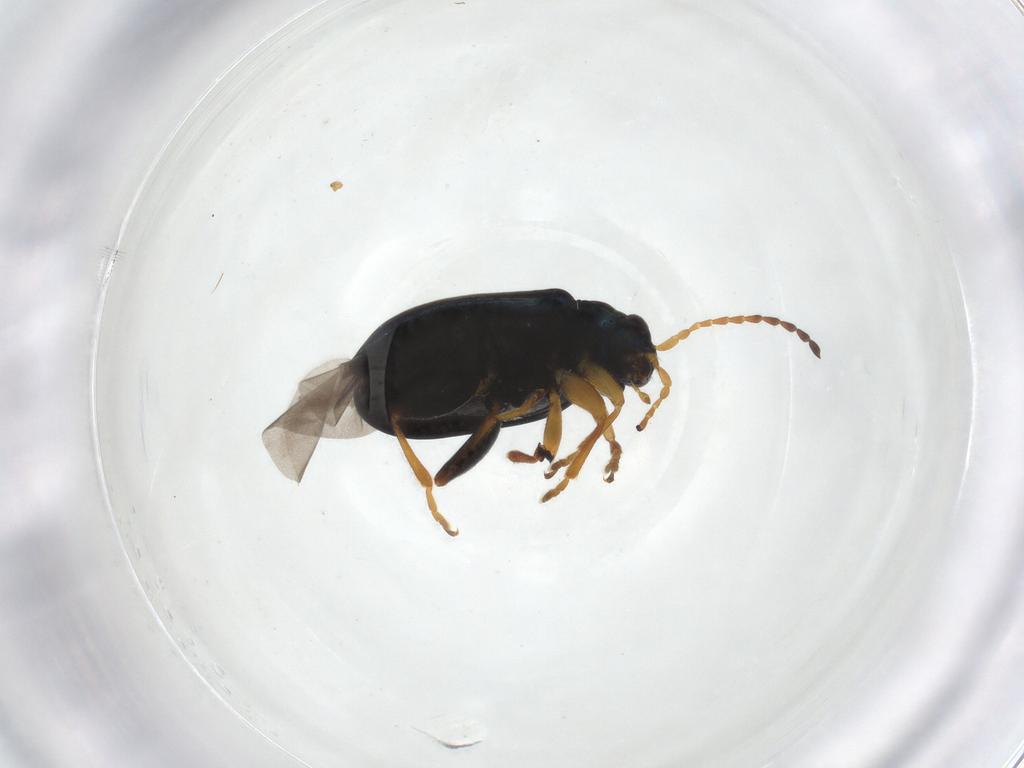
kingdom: Animalia
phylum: Arthropoda
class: Insecta
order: Coleoptera
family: Chrysomelidae
